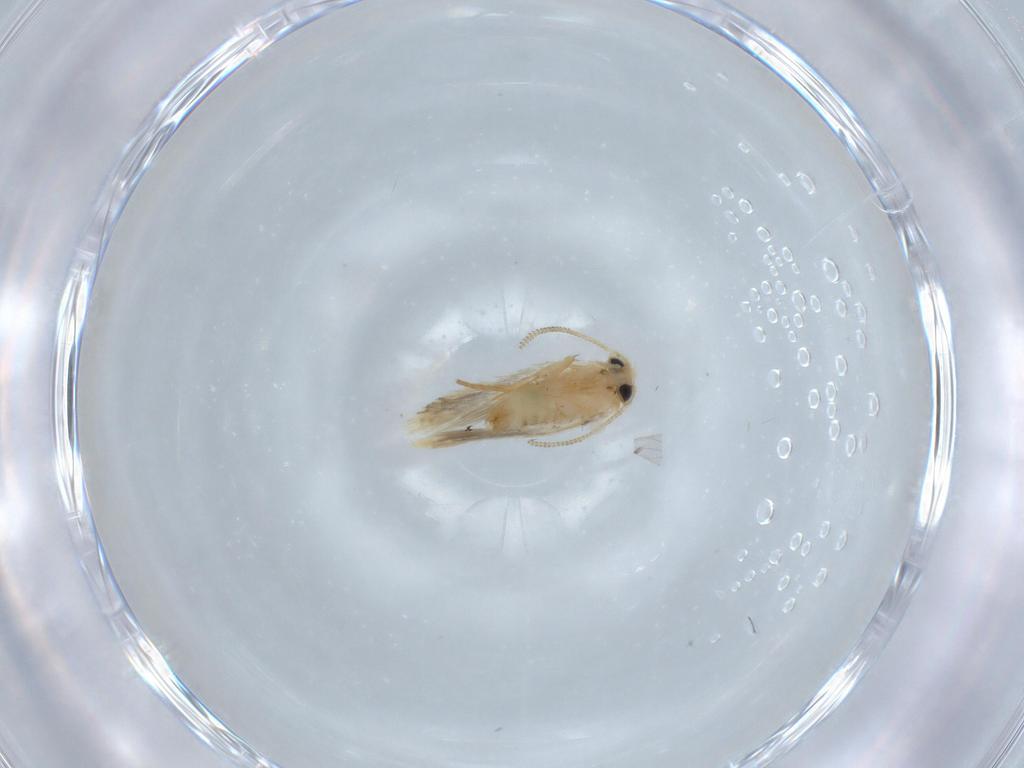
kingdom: Animalia
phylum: Arthropoda
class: Insecta
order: Lepidoptera
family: Nepticulidae
